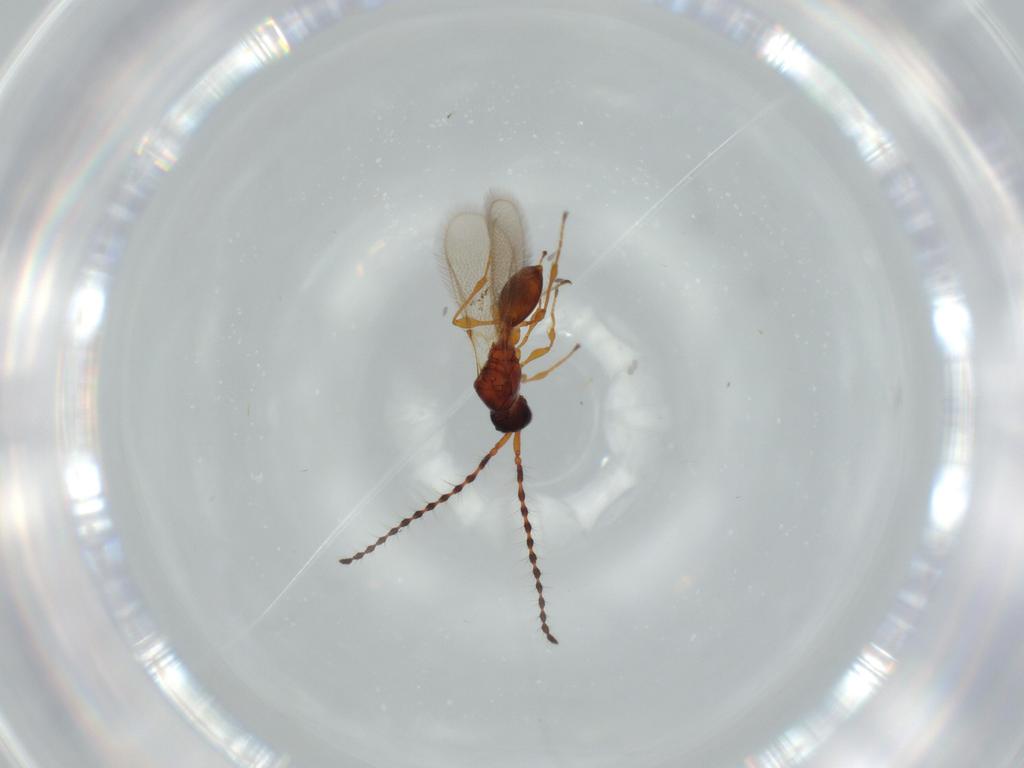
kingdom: Animalia
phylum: Arthropoda
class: Insecta
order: Hymenoptera
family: Diapriidae
